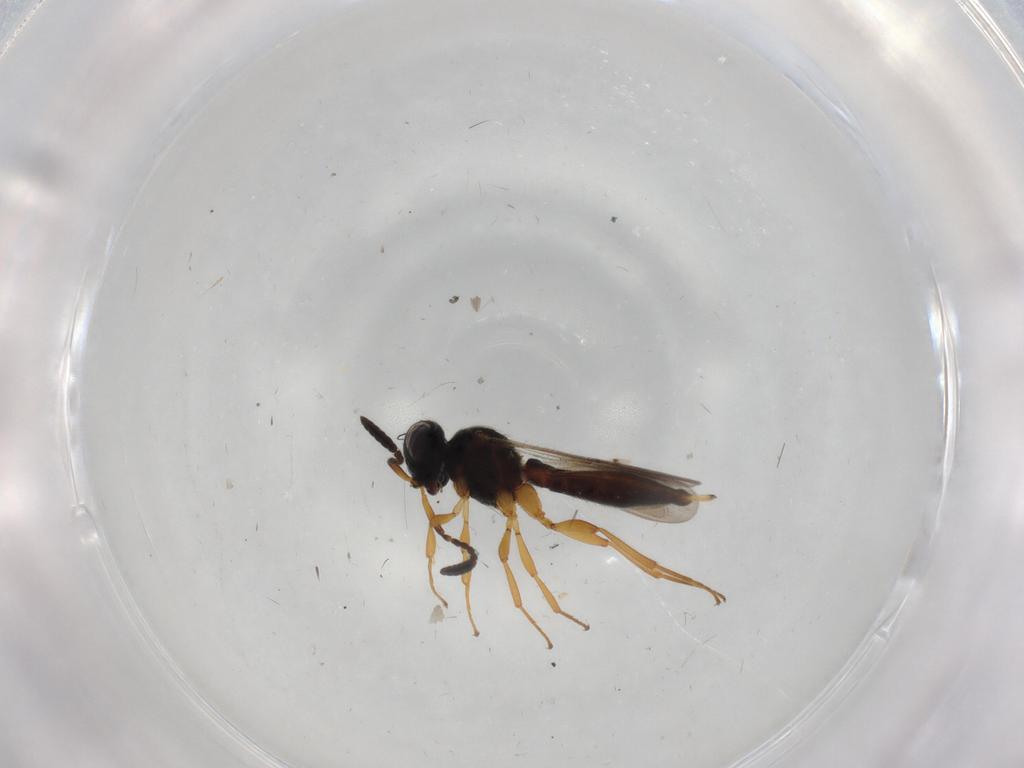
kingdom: Animalia
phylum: Arthropoda
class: Insecta
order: Hymenoptera
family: Scelionidae
